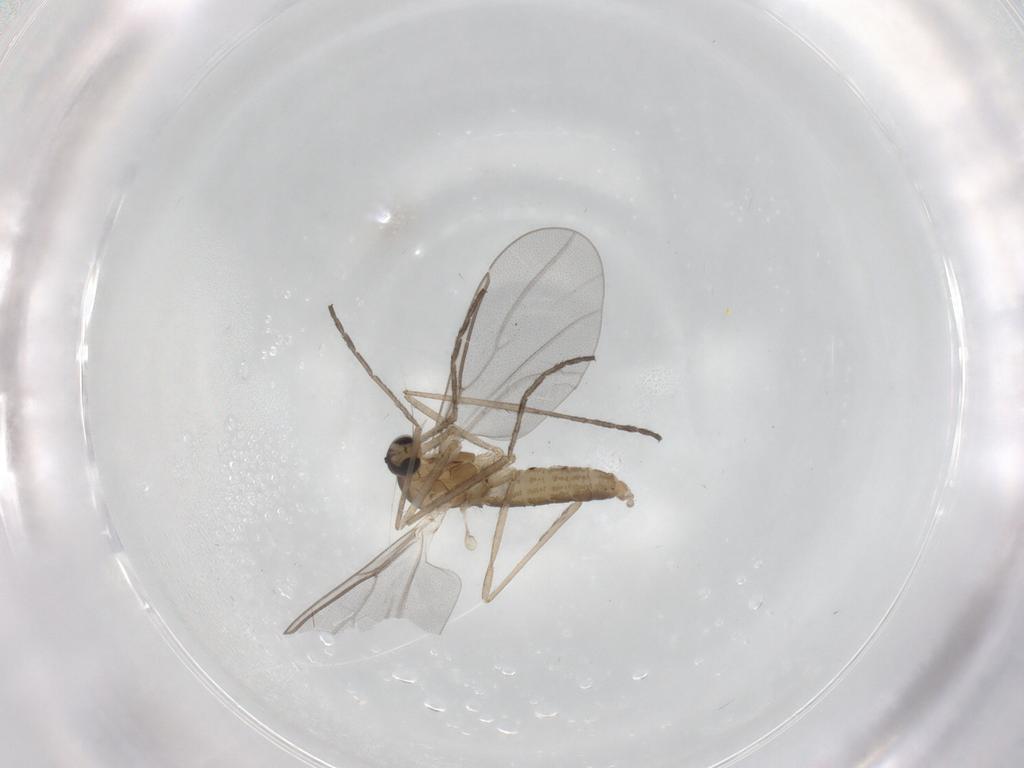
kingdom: Animalia
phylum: Arthropoda
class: Insecta
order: Diptera
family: Cecidomyiidae
